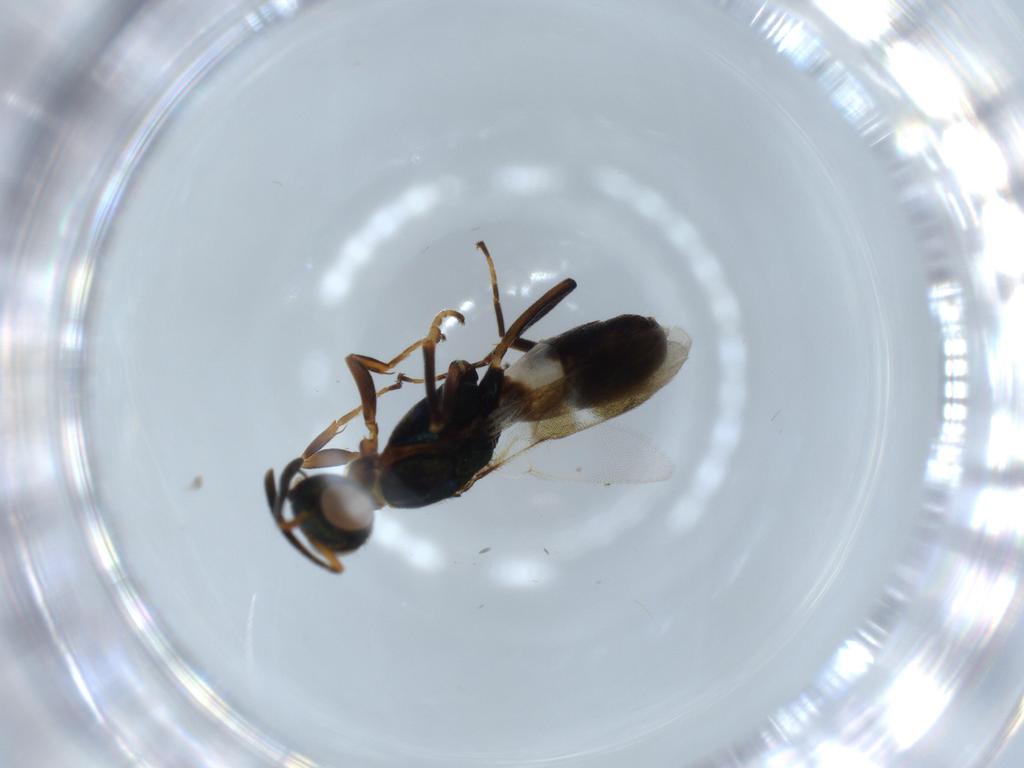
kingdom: Animalia
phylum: Arthropoda
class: Insecta
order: Hymenoptera
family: Eupelmidae
